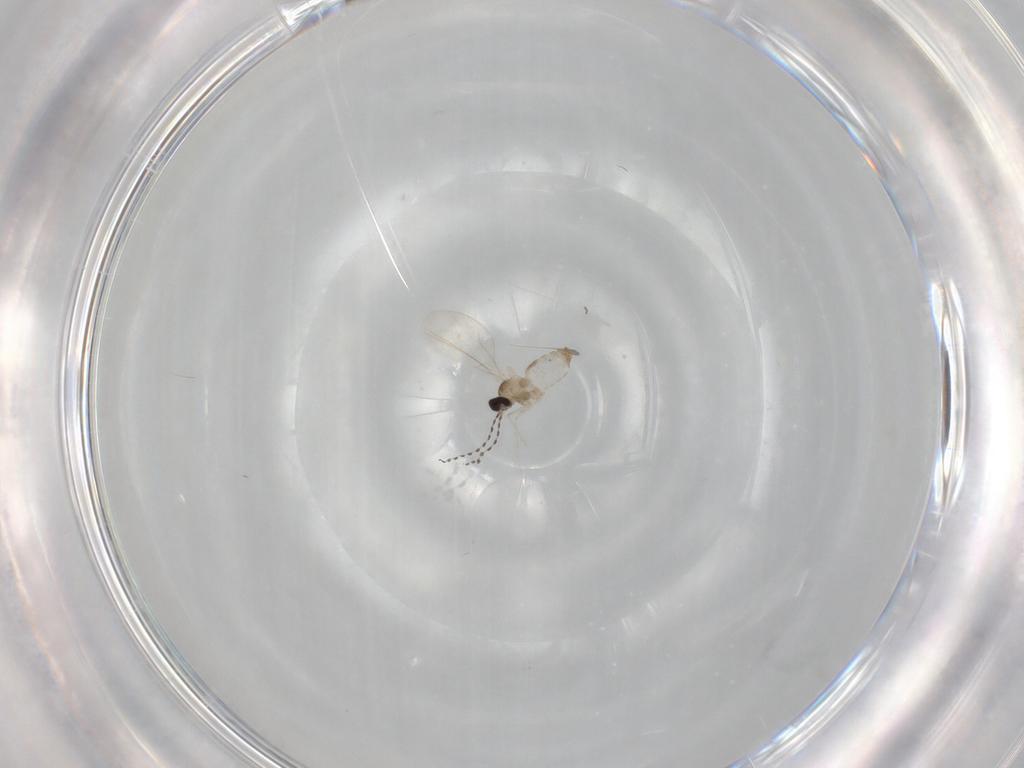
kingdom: Animalia
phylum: Arthropoda
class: Insecta
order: Diptera
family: Cecidomyiidae
